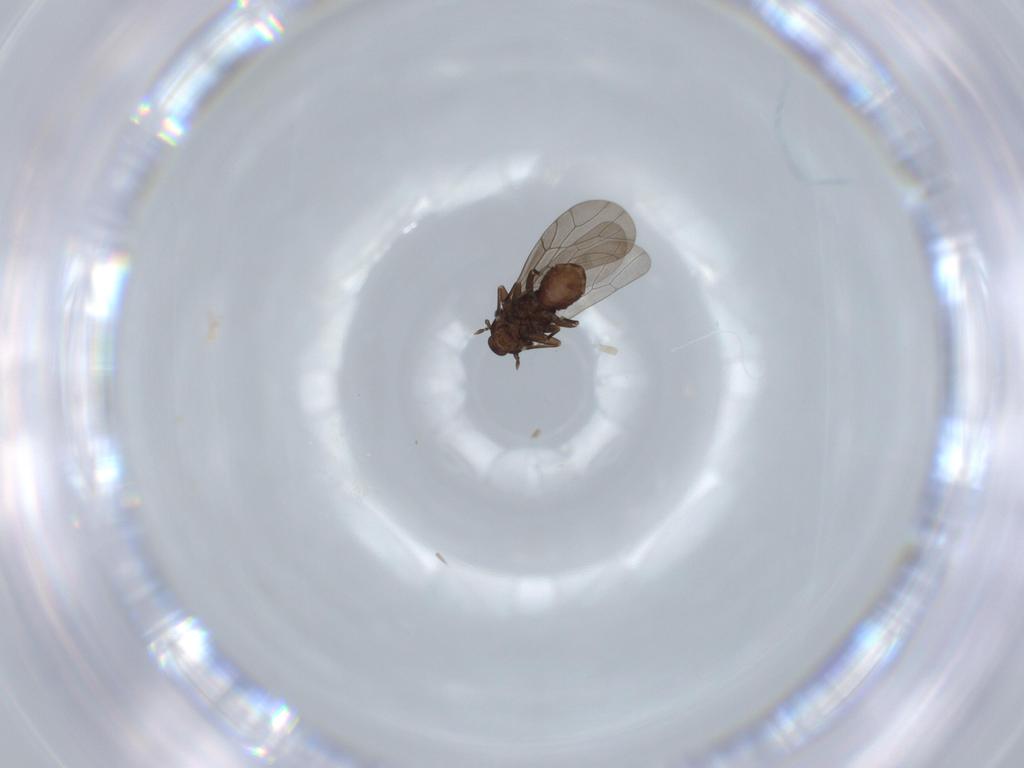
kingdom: Animalia
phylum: Arthropoda
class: Insecta
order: Psocodea
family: Lepidopsocidae
